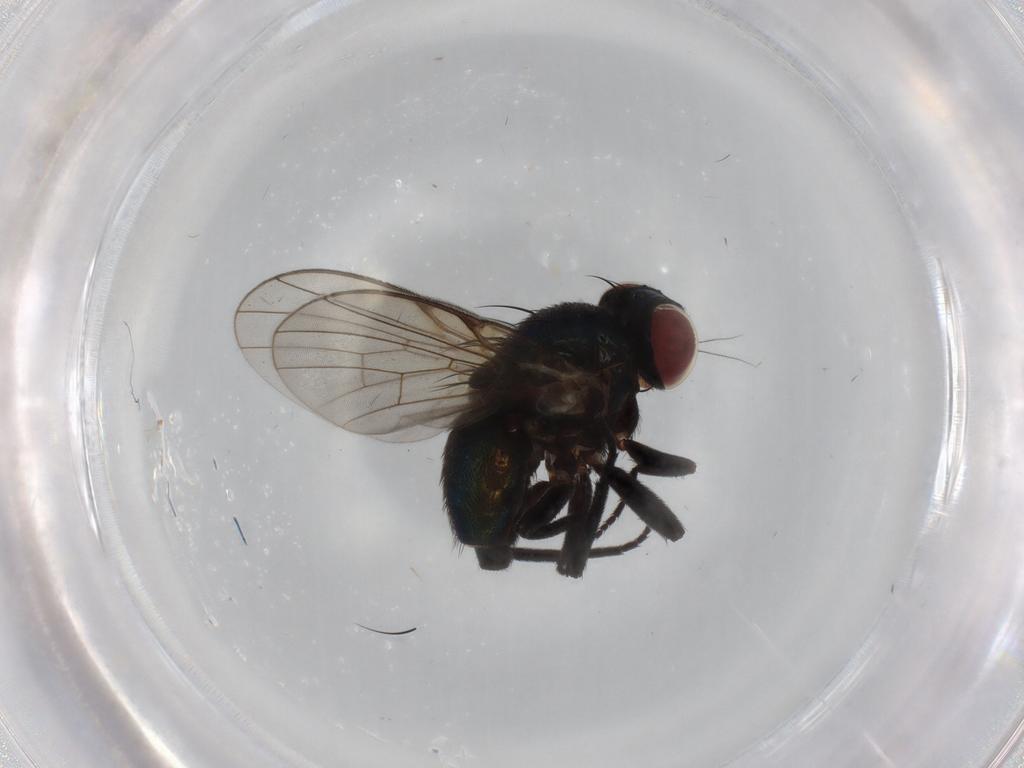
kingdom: Animalia
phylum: Arthropoda
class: Insecta
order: Diptera
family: Agromyzidae
